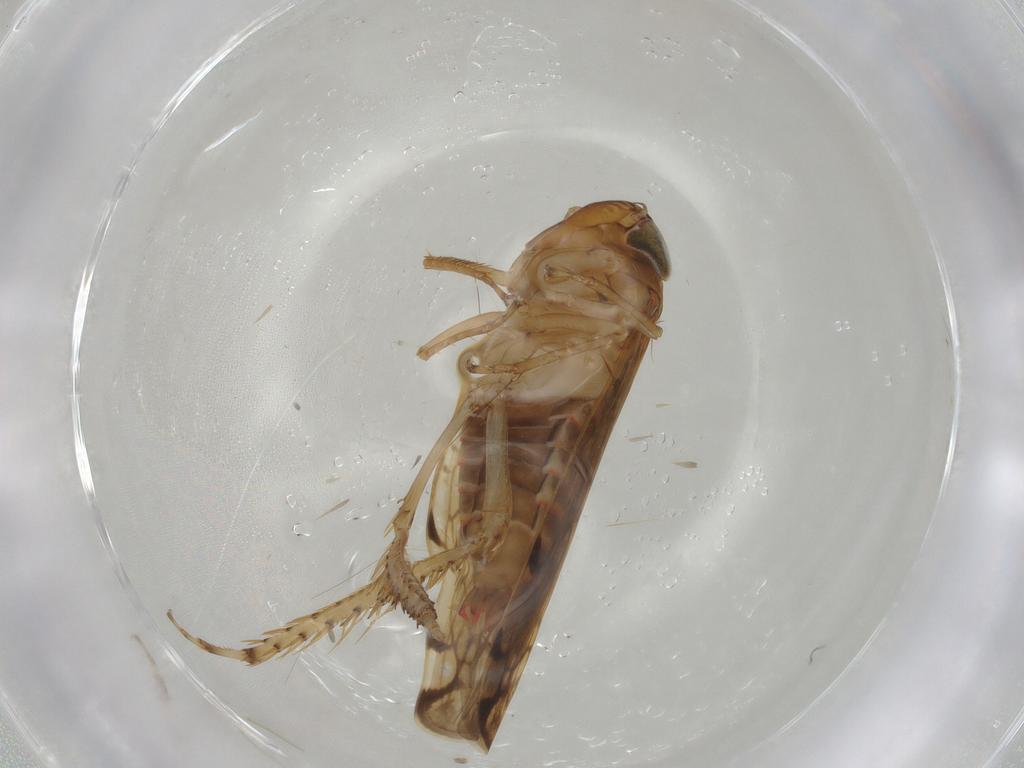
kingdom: Animalia
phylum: Arthropoda
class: Insecta
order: Hemiptera
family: Cicadellidae
